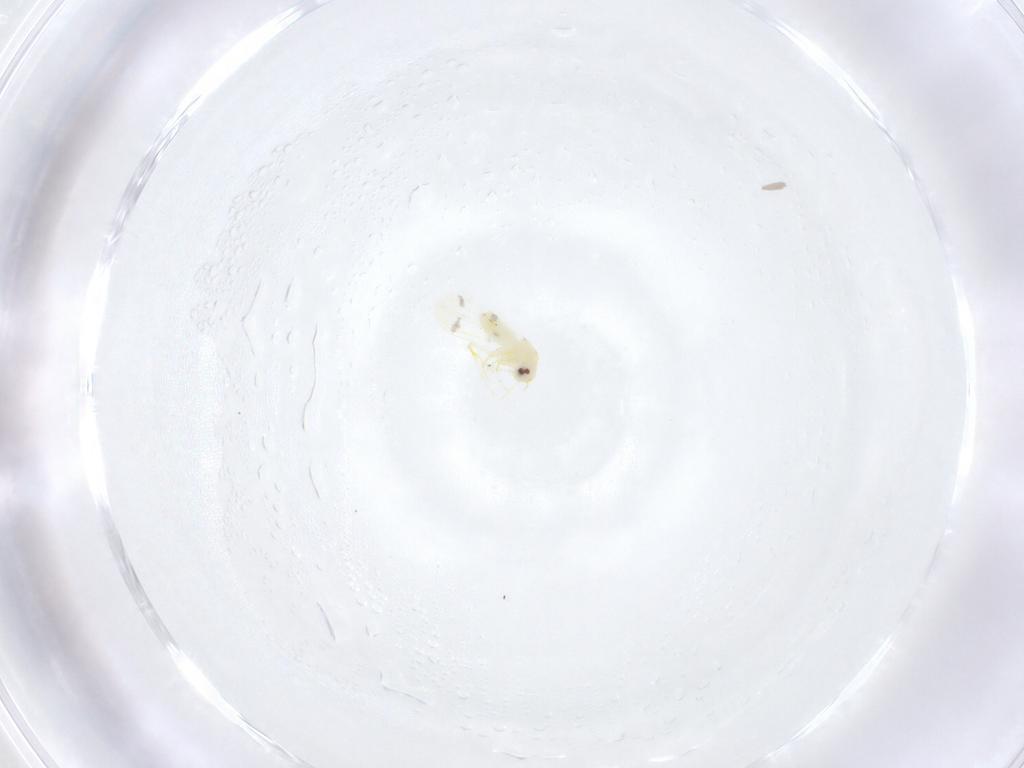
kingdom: Animalia
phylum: Arthropoda
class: Insecta
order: Hemiptera
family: Aleyrodidae
